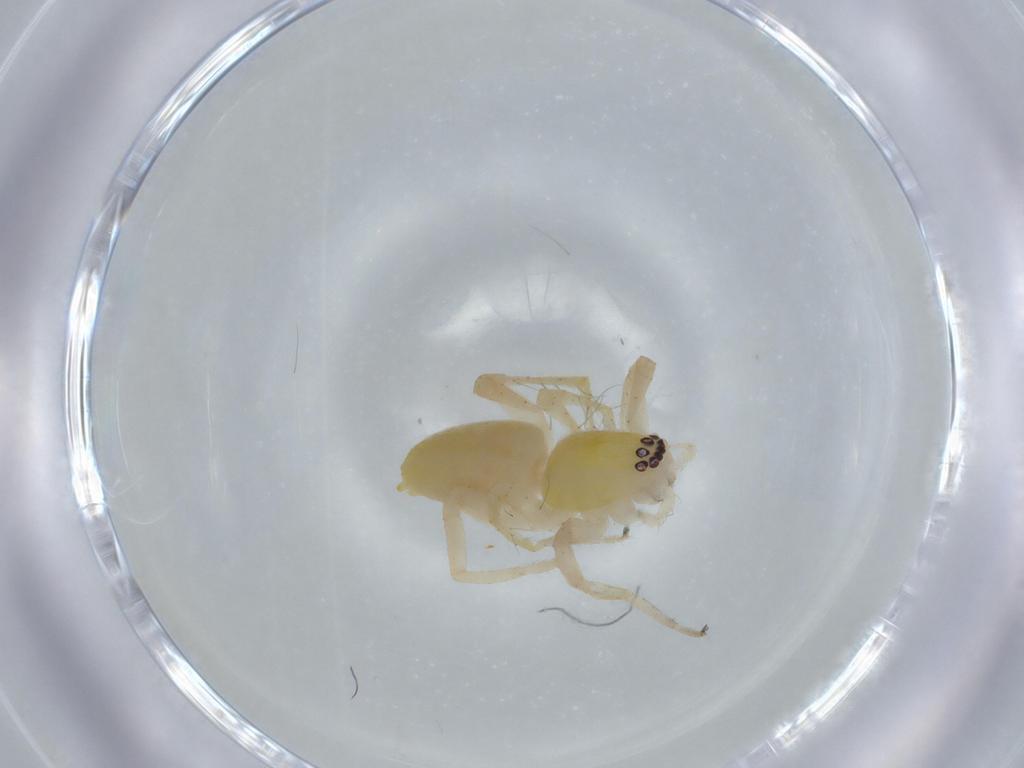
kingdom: Animalia
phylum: Arthropoda
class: Arachnida
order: Araneae
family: Anyphaenidae
